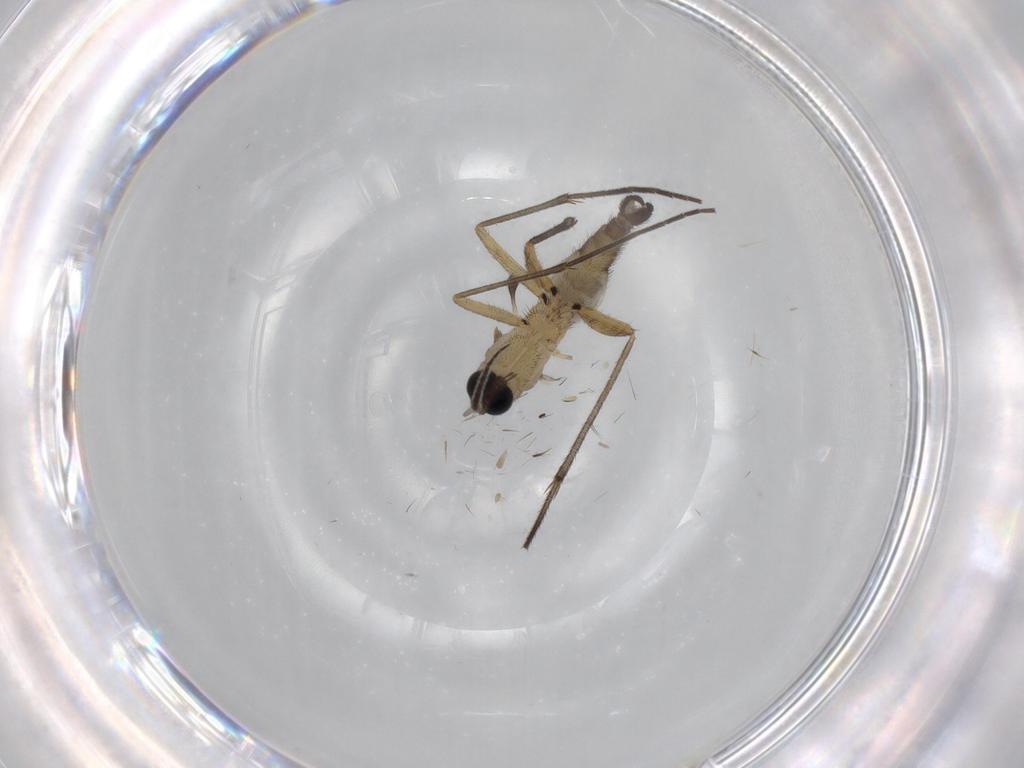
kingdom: Animalia
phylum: Arthropoda
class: Insecta
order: Diptera
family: Sciaridae
